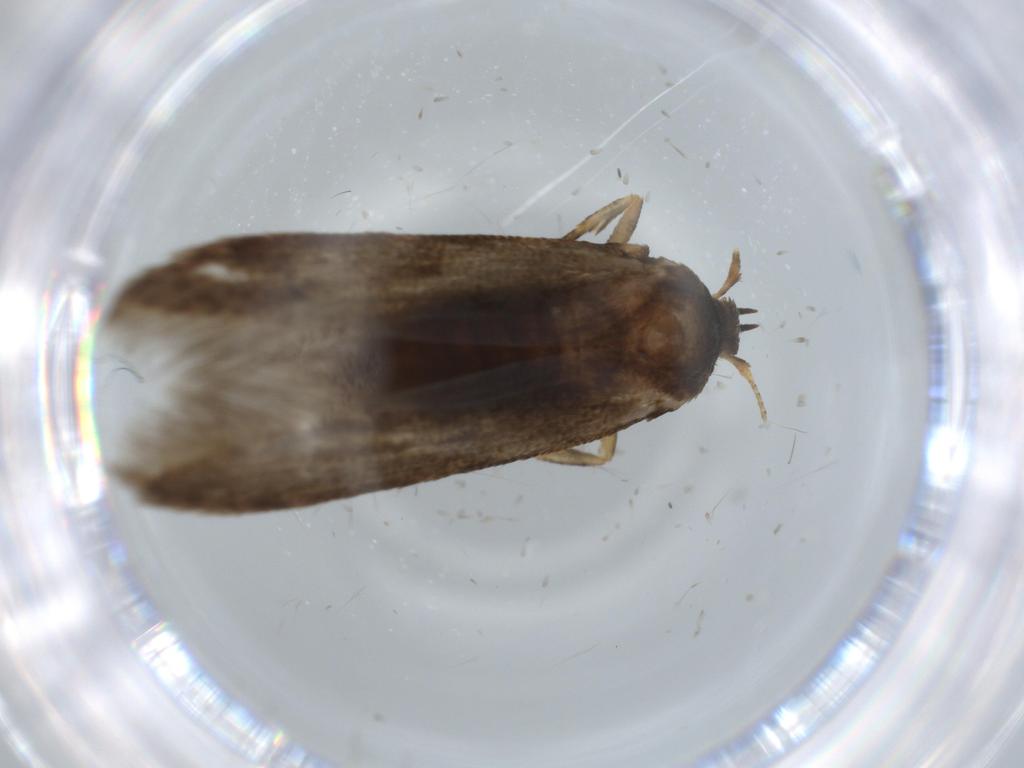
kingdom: Animalia
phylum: Arthropoda
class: Insecta
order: Lepidoptera
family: Coleophoridae
